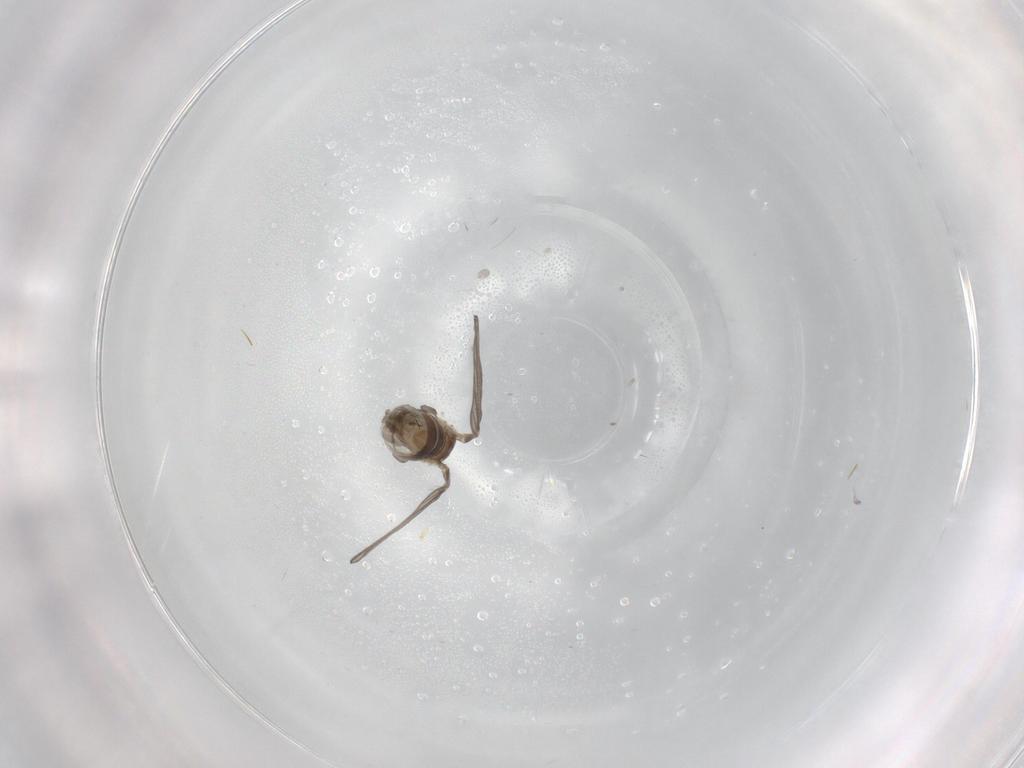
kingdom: Animalia
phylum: Arthropoda
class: Insecta
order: Diptera
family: Psychodidae
